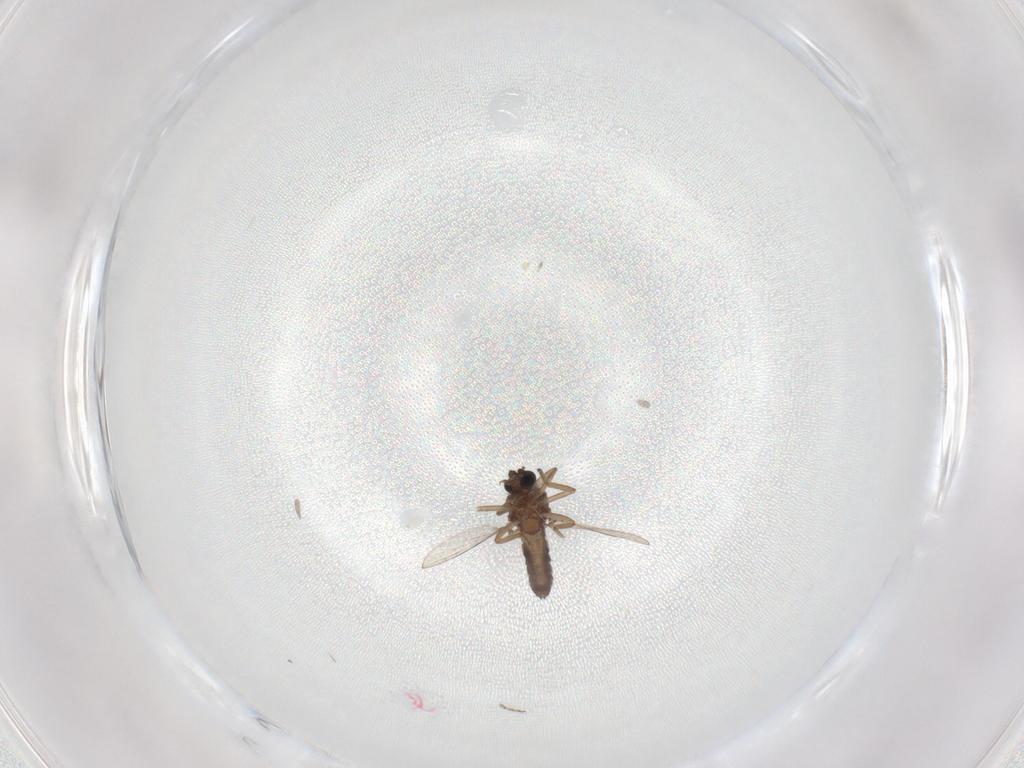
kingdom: Animalia
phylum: Arthropoda
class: Insecta
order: Diptera
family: Ceratopogonidae
